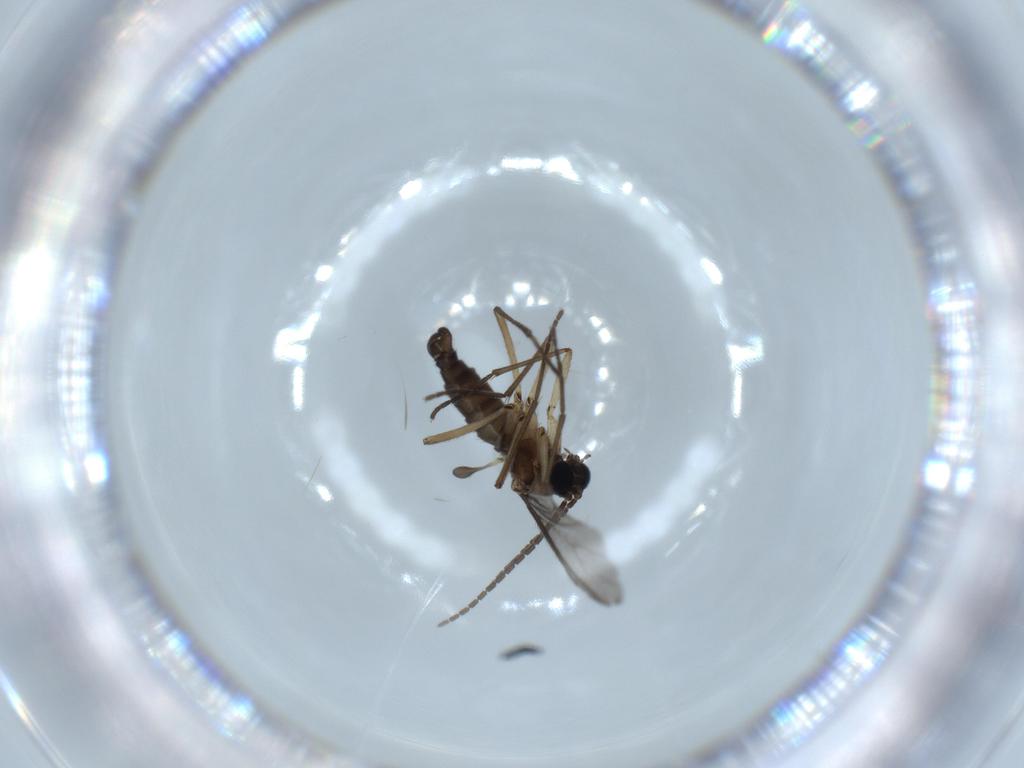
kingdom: Animalia
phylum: Arthropoda
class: Insecta
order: Diptera
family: Sciaridae
